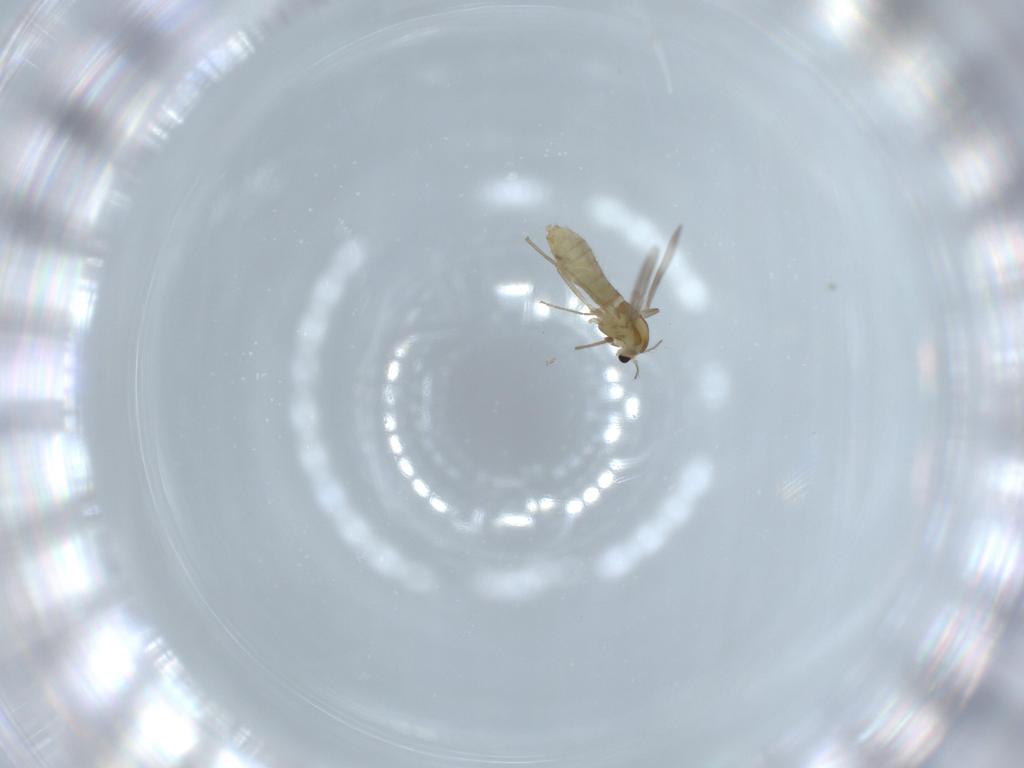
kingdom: Animalia
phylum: Arthropoda
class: Insecta
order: Diptera
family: Chironomidae
